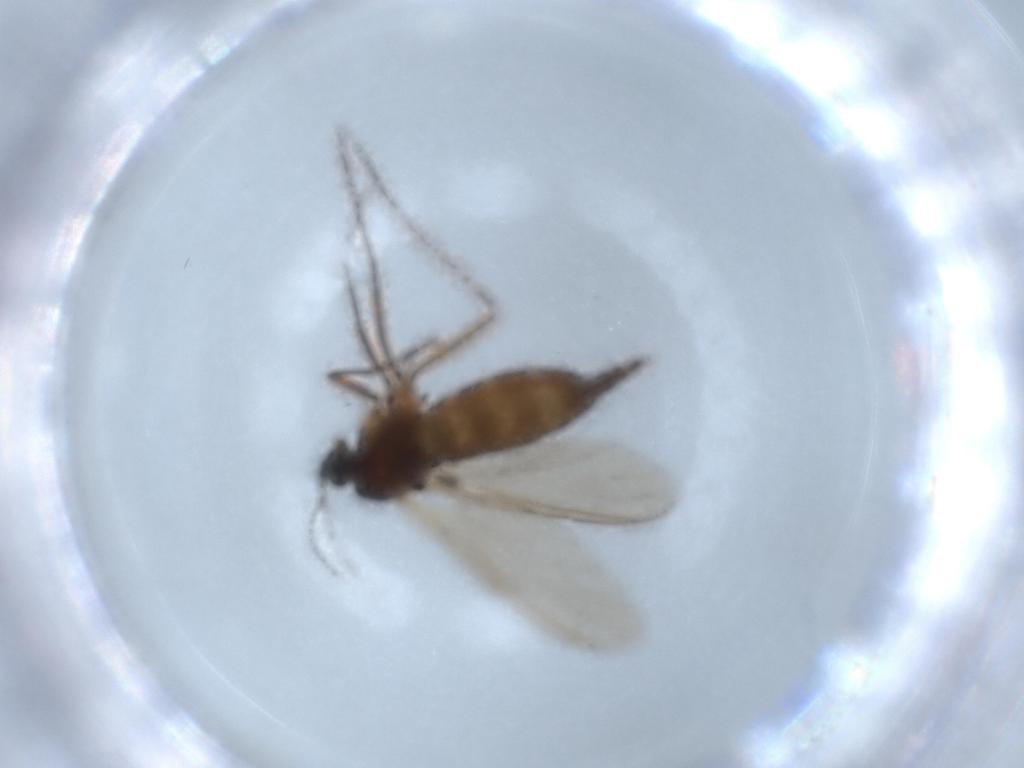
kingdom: Animalia
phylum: Arthropoda
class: Insecta
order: Diptera
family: Sciaridae
